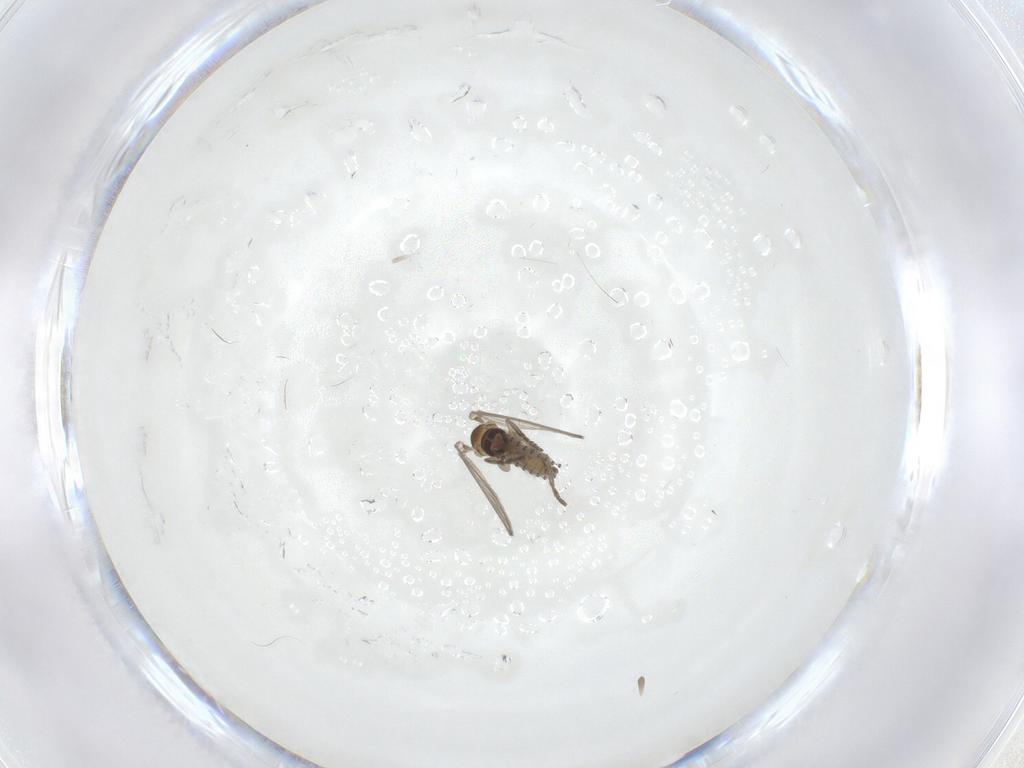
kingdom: Animalia
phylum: Arthropoda
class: Insecta
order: Diptera
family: Psychodidae
